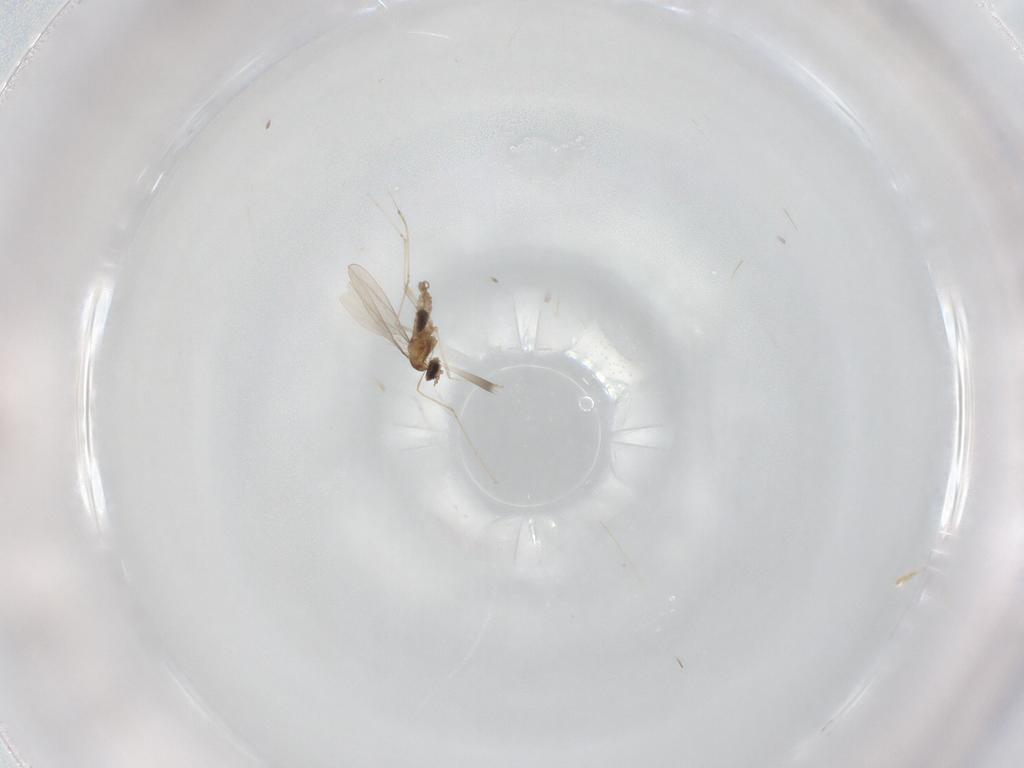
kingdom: Animalia
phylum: Arthropoda
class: Insecta
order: Diptera
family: Cecidomyiidae
